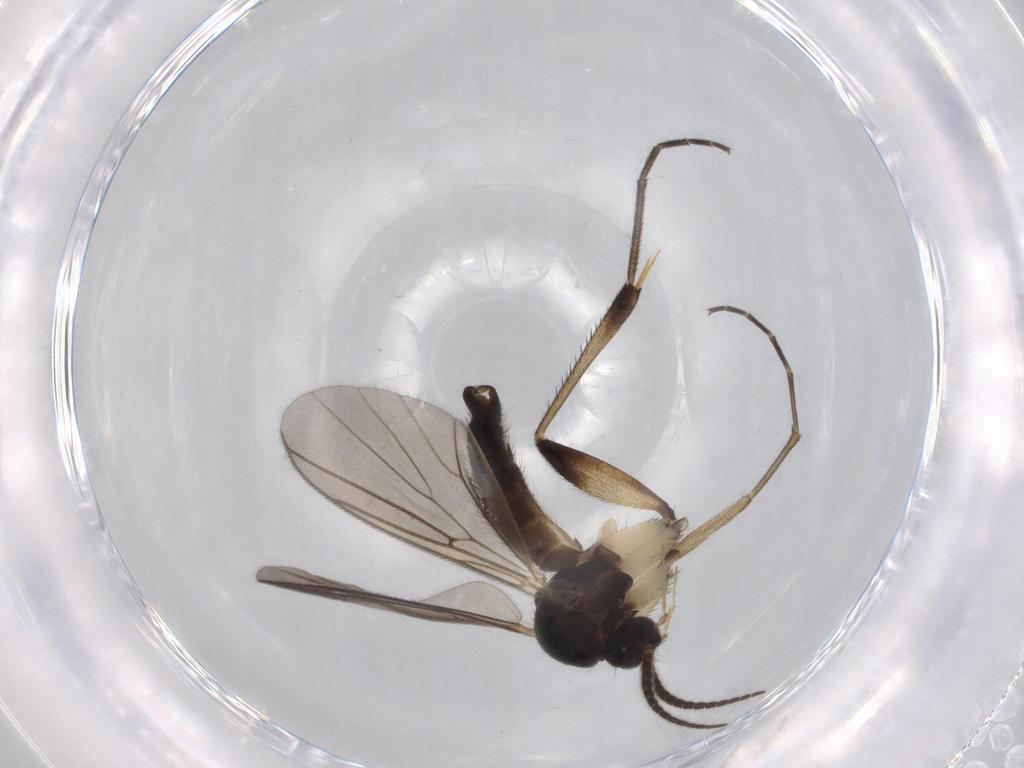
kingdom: Animalia
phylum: Arthropoda
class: Insecta
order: Diptera
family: Mycetophilidae
